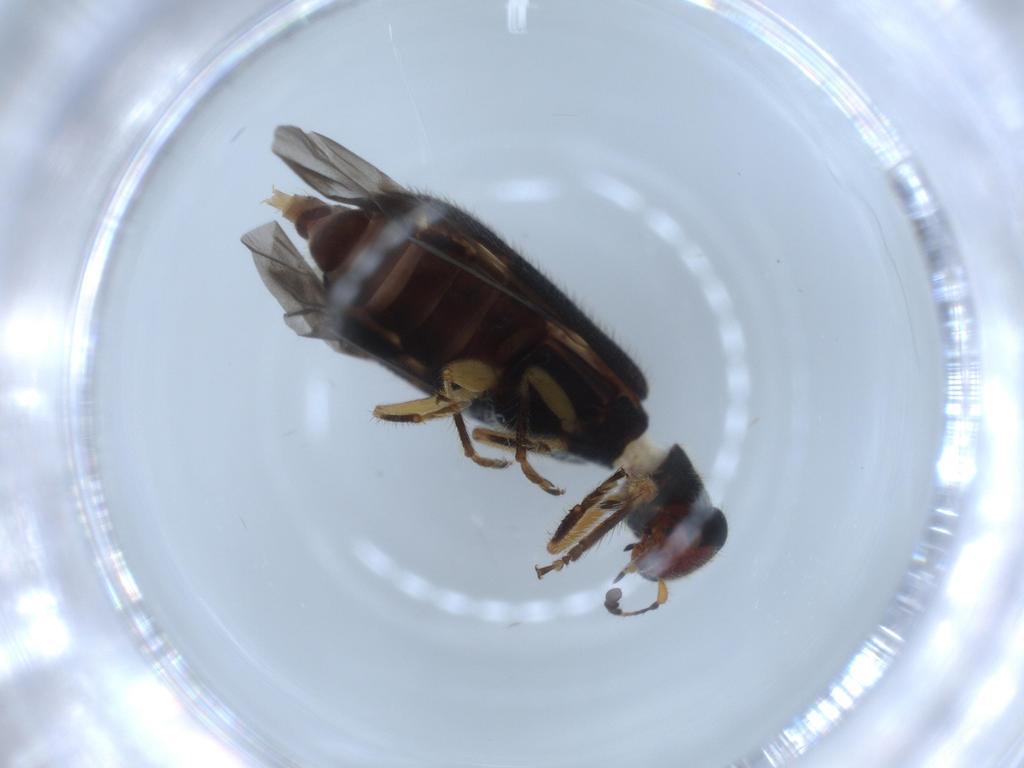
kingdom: Animalia
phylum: Arthropoda
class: Insecta
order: Coleoptera
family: Cleridae
